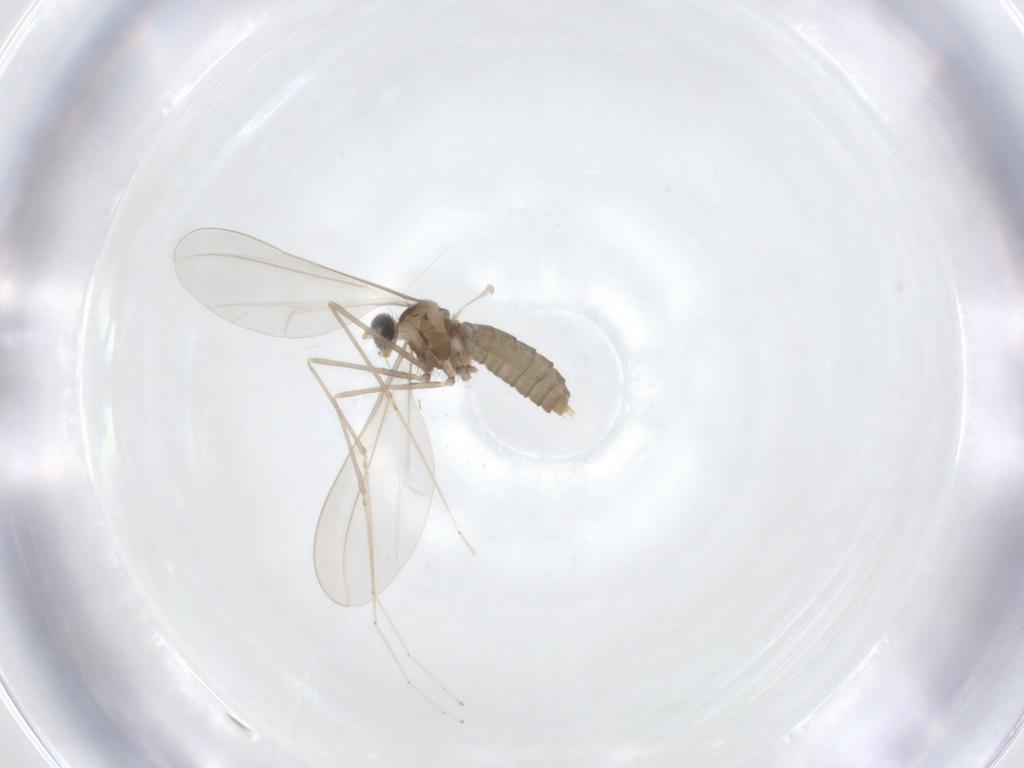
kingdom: Animalia
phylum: Arthropoda
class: Insecta
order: Diptera
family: Cecidomyiidae
